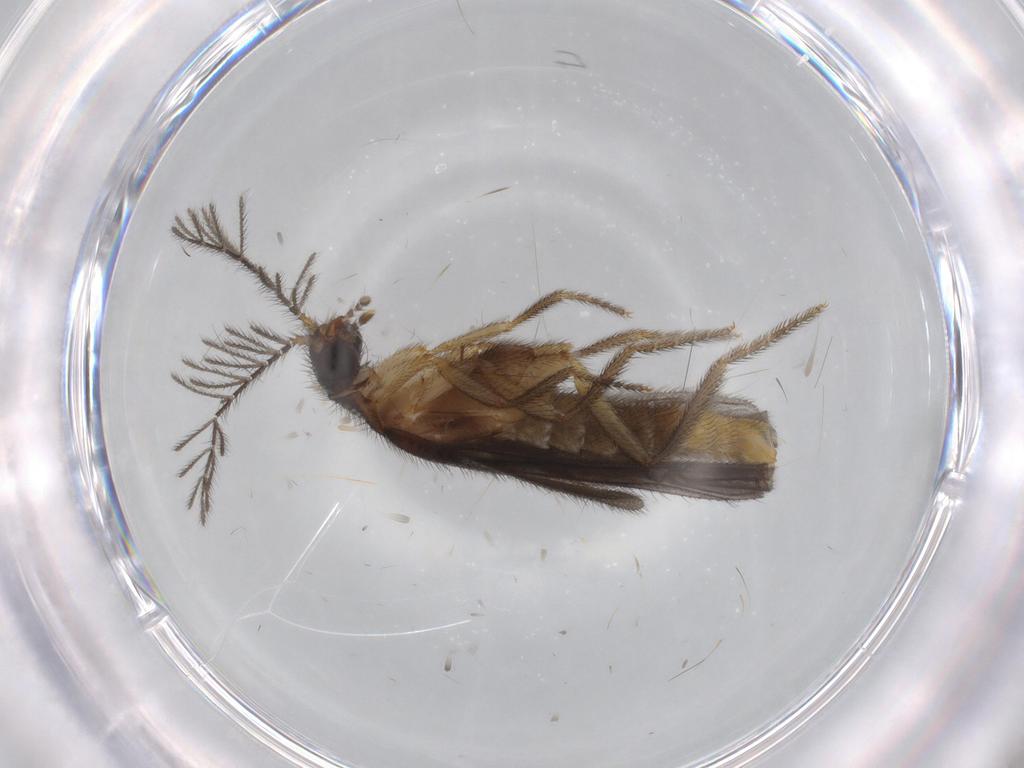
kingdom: Animalia
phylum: Arthropoda
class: Insecta
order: Coleoptera
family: Phengodidae
